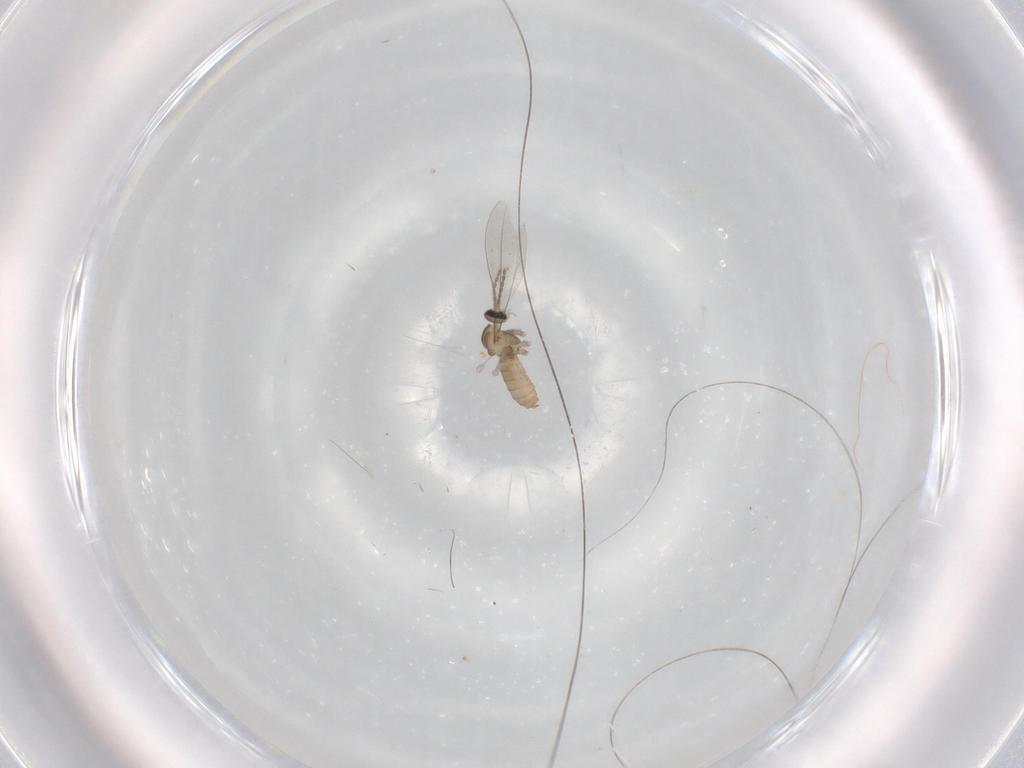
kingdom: Animalia
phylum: Arthropoda
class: Insecta
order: Diptera
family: Cecidomyiidae
